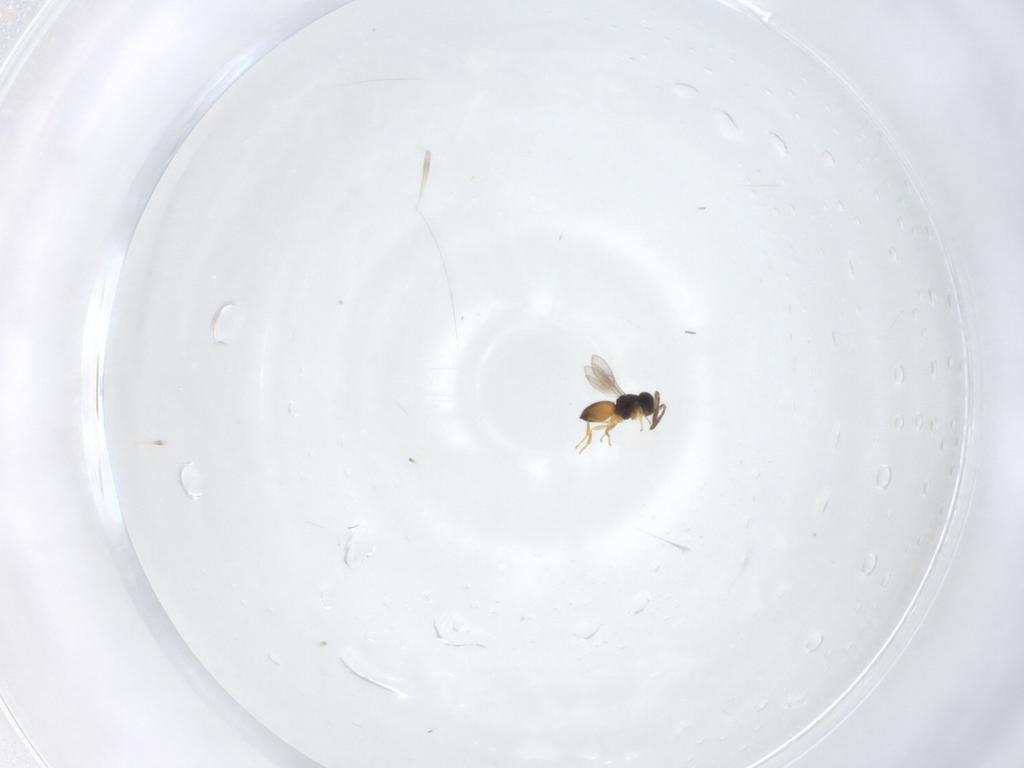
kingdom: Animalia
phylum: Arthropoda
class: Insecta
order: Hymenoptera
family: Scelionidae
